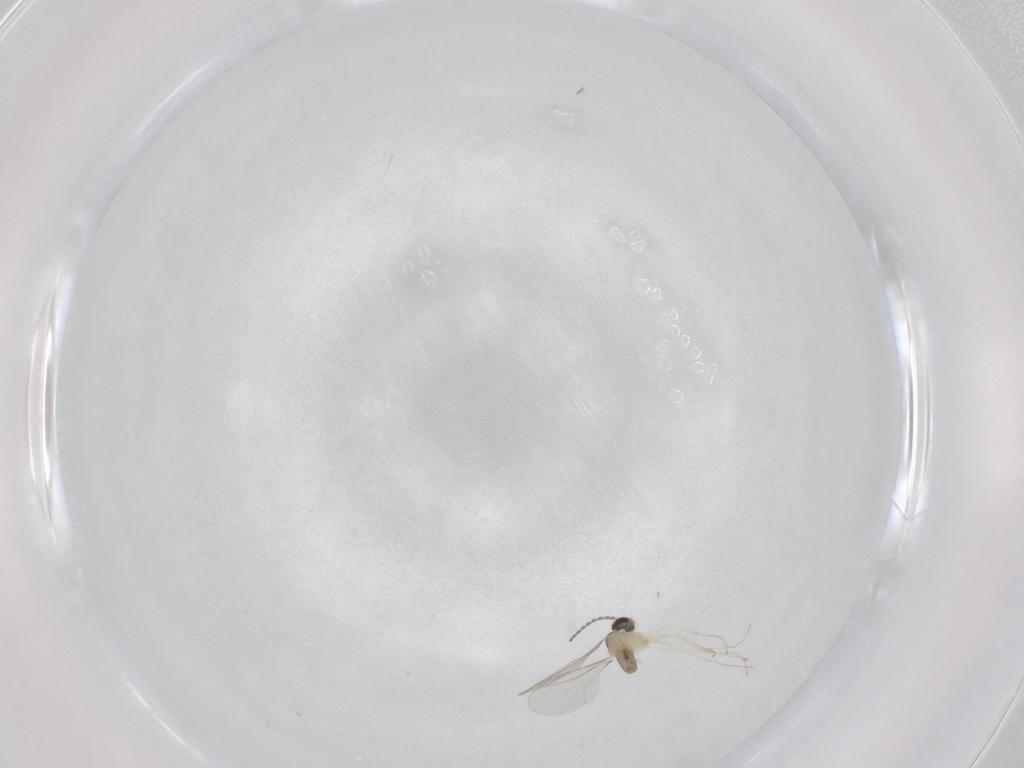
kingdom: Animalia
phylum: Arthropoda
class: Insecta
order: Diptera
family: Cecidomyiidae
